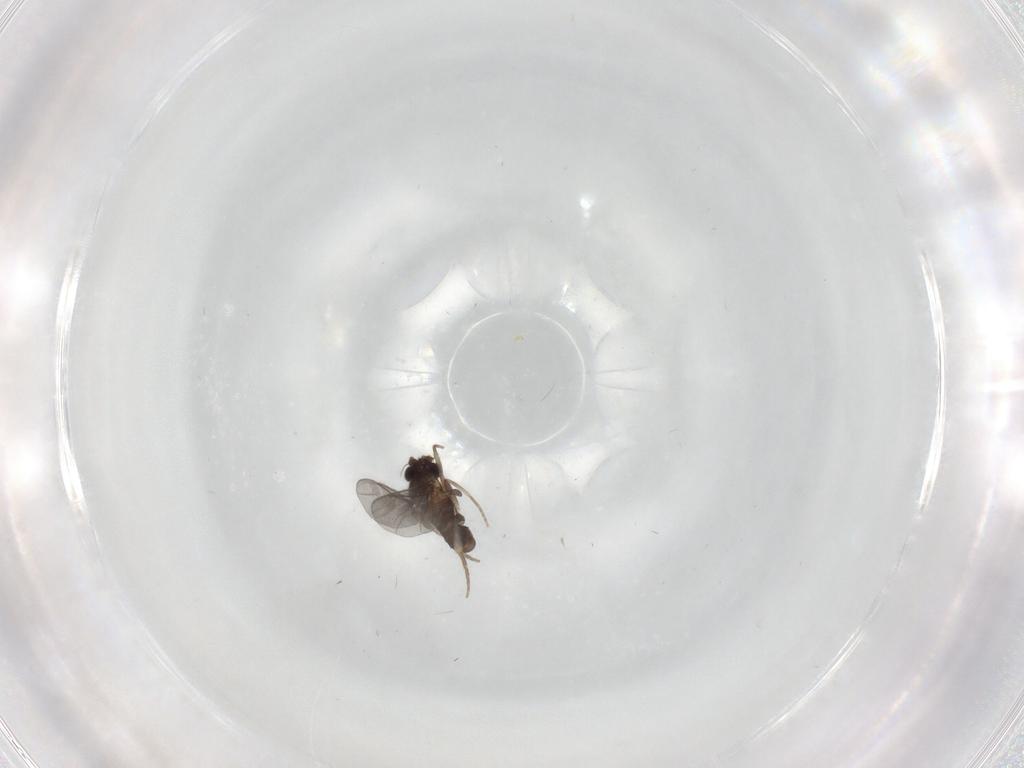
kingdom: Animalia
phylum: Arthropoda
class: Insecta
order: Diptera
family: Phoridae
